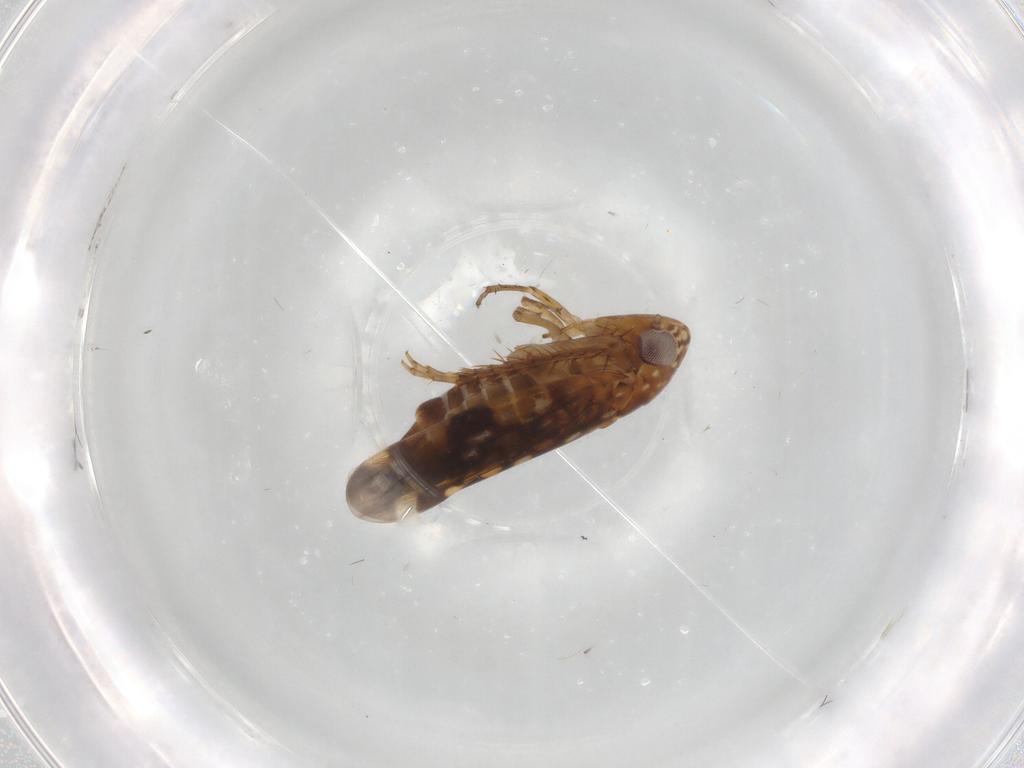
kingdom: Animalia
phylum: Arthropoda
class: Insecta
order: Hemiptera
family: Cicadellidae
